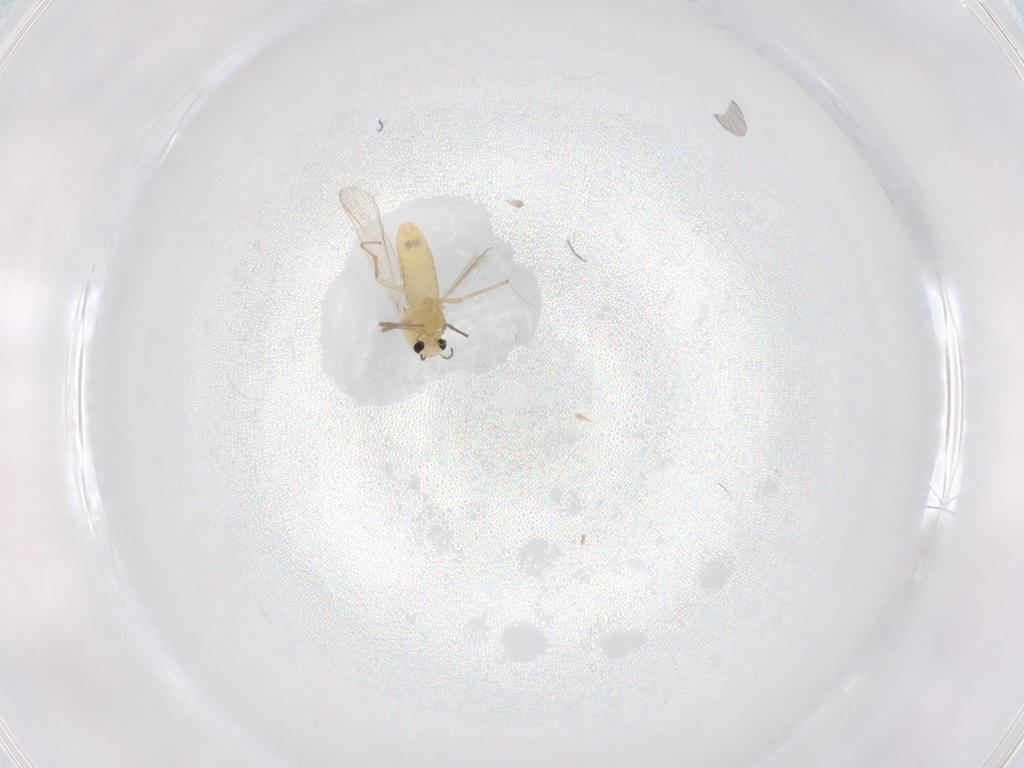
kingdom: Animalia
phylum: Arthropoda
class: Insecta
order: Diptera
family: Chironomidae
